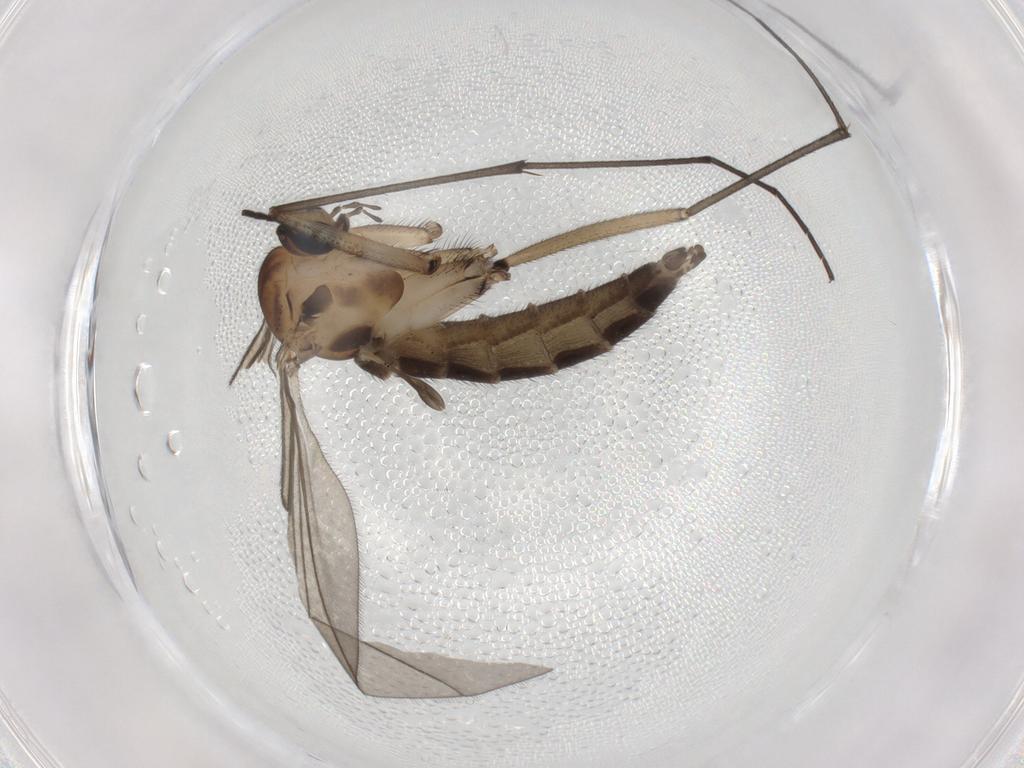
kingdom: Animalia
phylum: Arthropoda
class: Insecta
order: Diptera
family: Sciaridae
